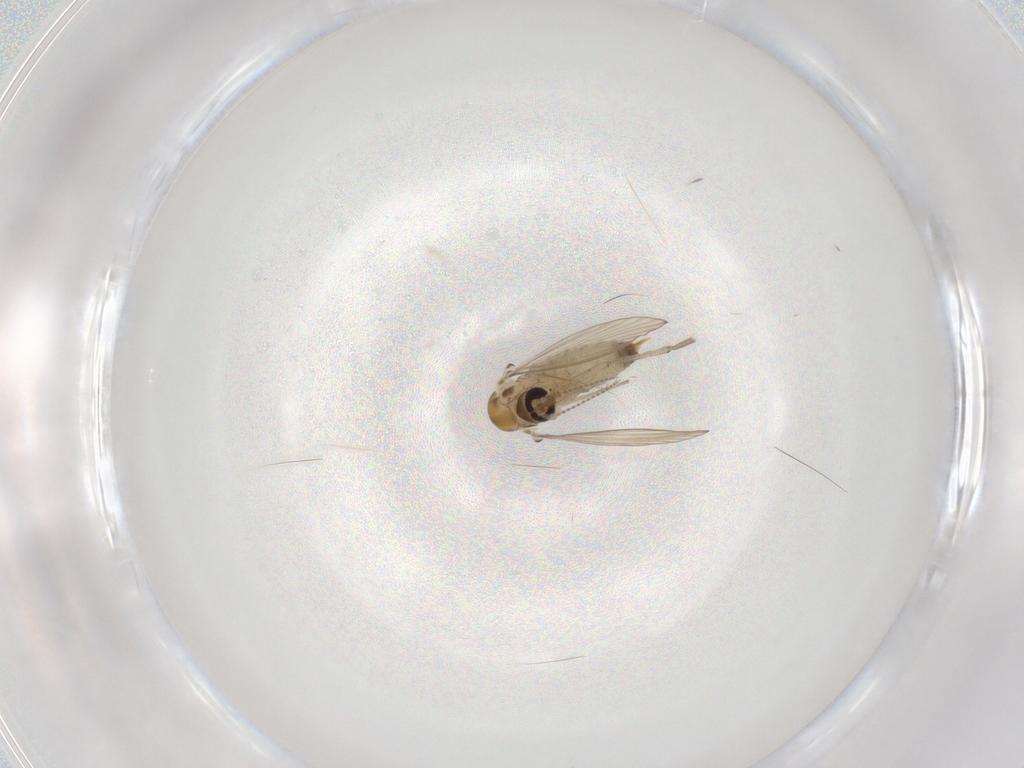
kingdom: Animalia
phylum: Arthropoda
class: Insecta
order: Diptera
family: Psychodidae
